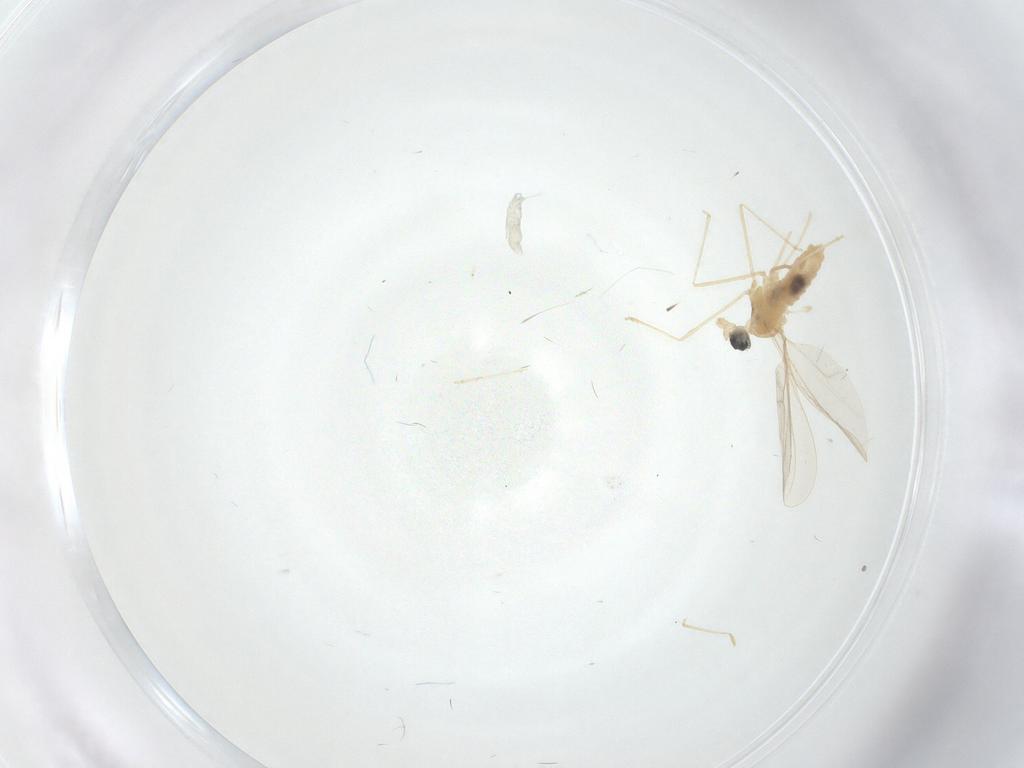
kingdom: Animalia
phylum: Arthropoda
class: Insecta
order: Diptera
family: Cecidomyiidae
